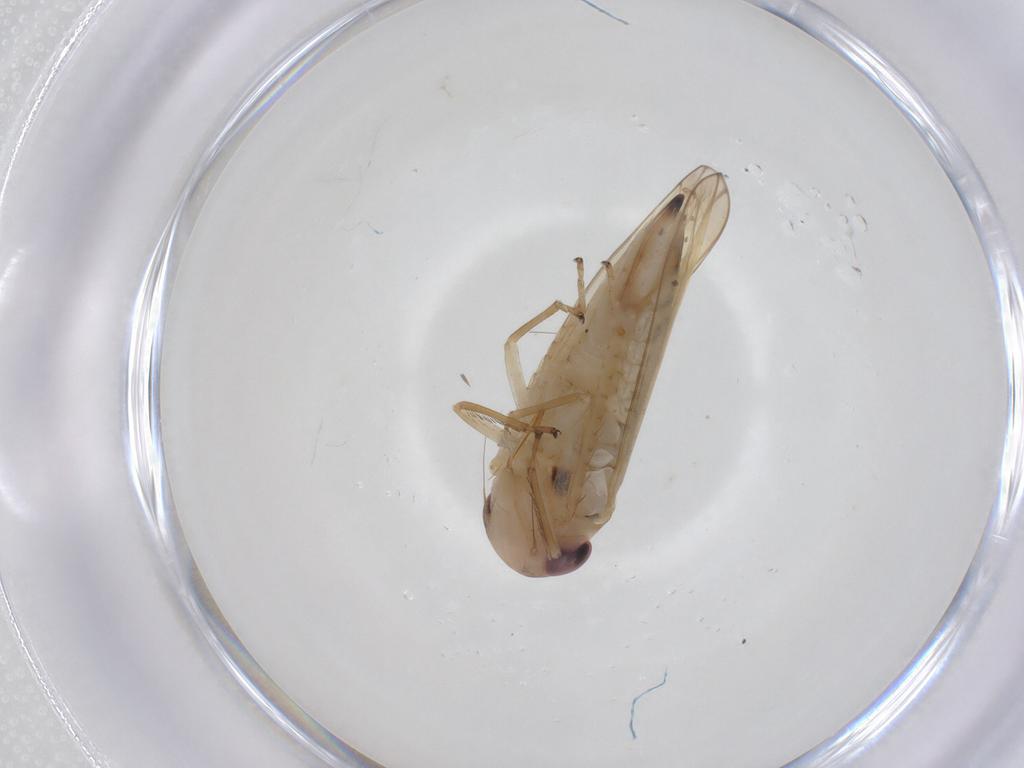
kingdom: Animalia
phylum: Arthropoda
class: Insecta
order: Hemiptera
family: Cicadellidae
